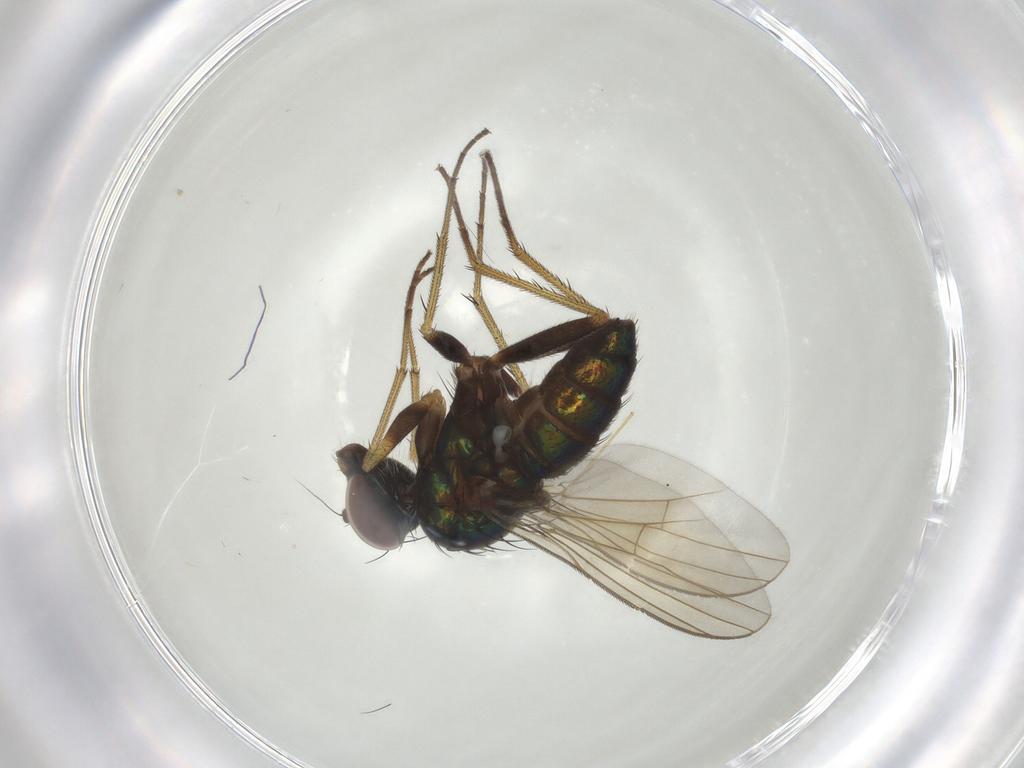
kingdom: Animalia
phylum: Arthropoda
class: Insecta
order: Diptera
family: Dolichopodidae
